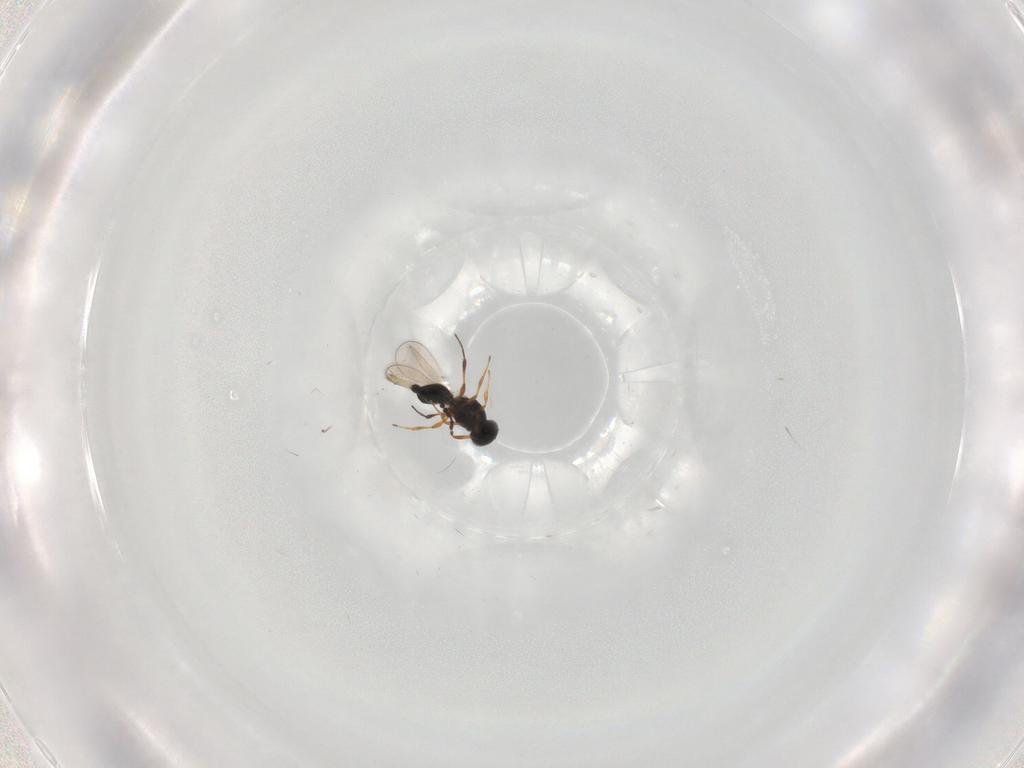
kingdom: Animalia
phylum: Arthropoda
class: Insecta
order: Hymenoptera
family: Platygastridae
